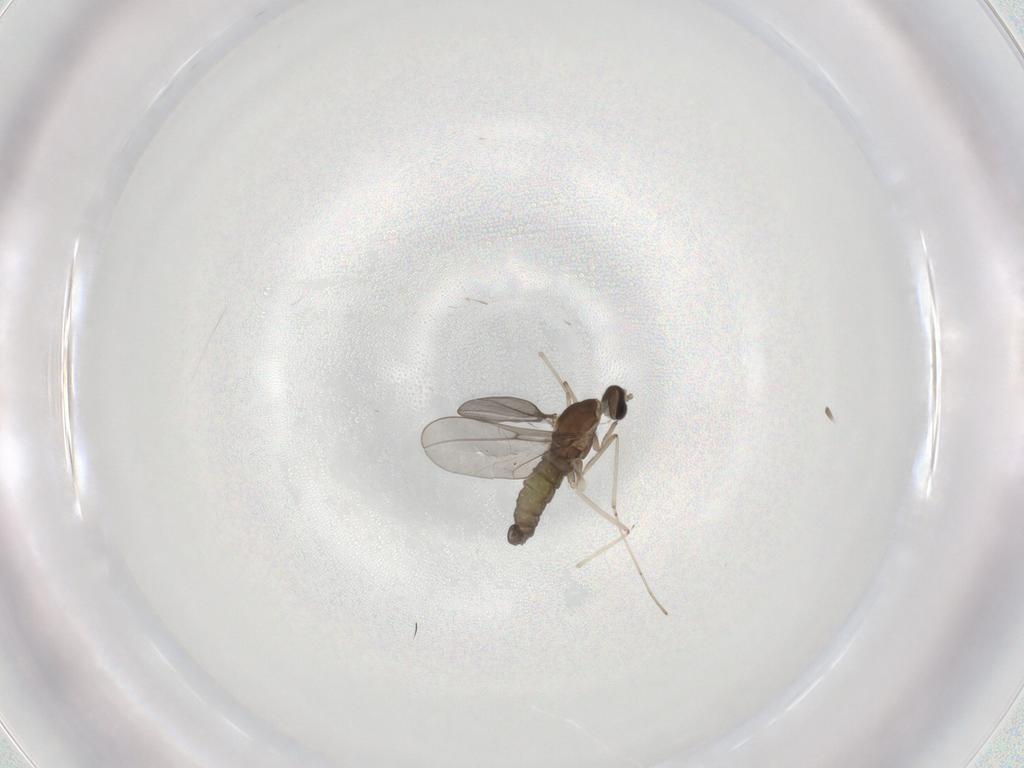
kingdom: Animalia
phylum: Arthropoda
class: Insecta
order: Diptera
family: Cecidomyiidae
